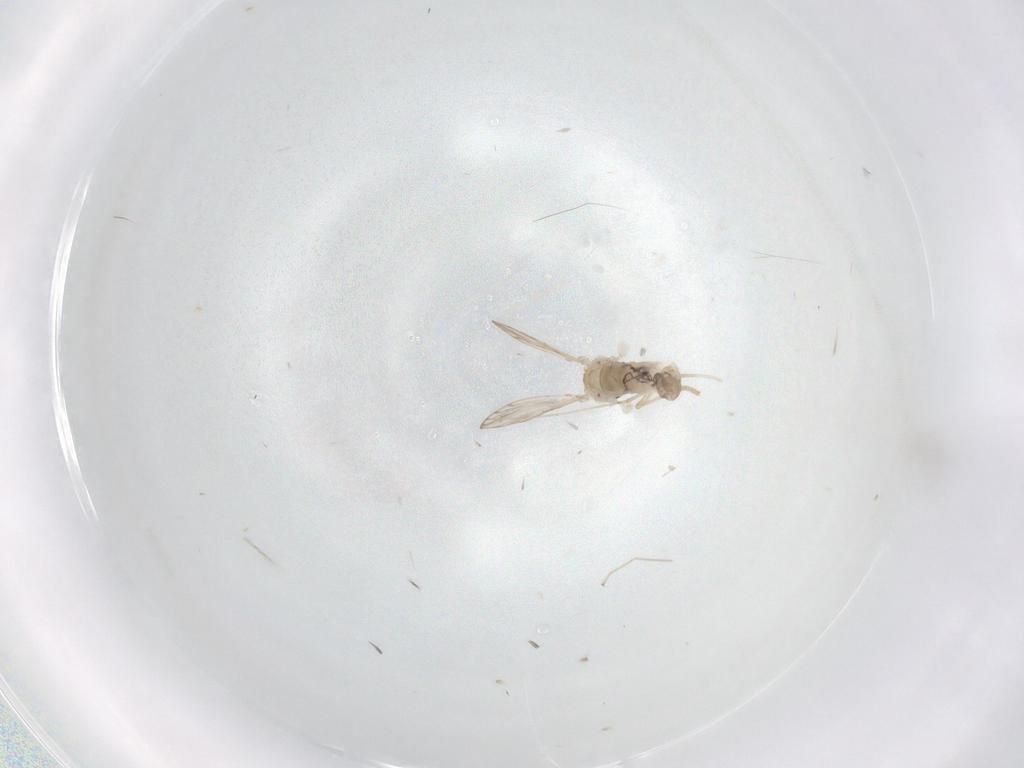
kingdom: Animalia
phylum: Arthropoda
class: Insecta
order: Diptera
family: Psychodidae
